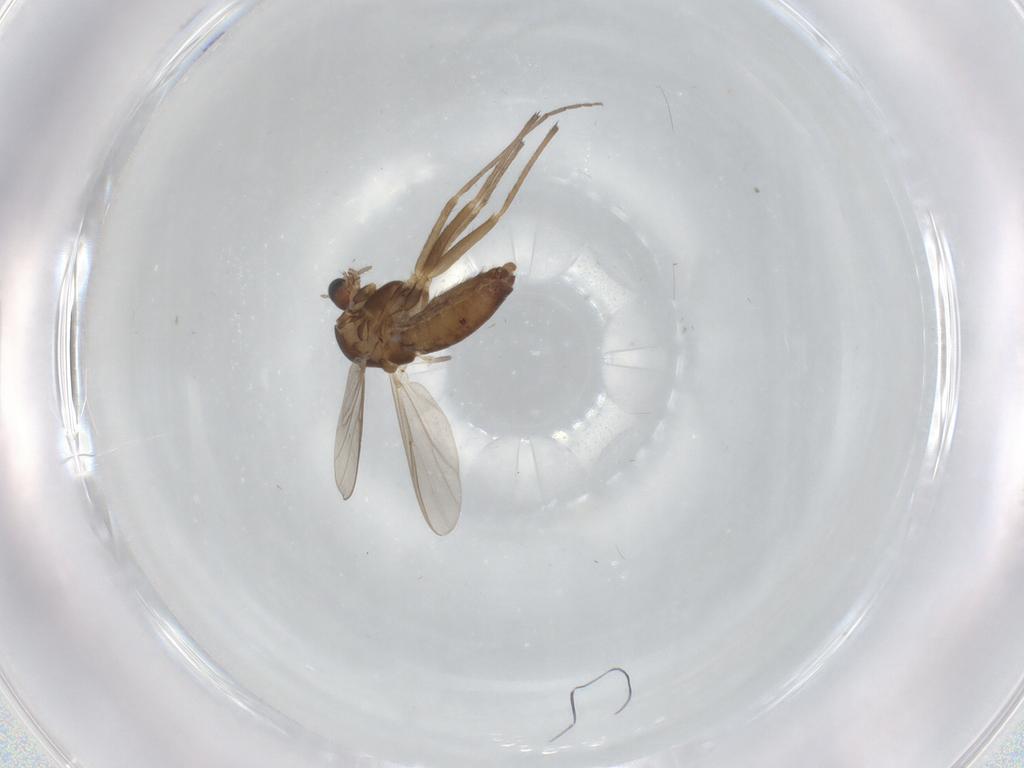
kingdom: Animalia
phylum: Arthropoda
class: Insecta
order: Diptera
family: Chironomidae
